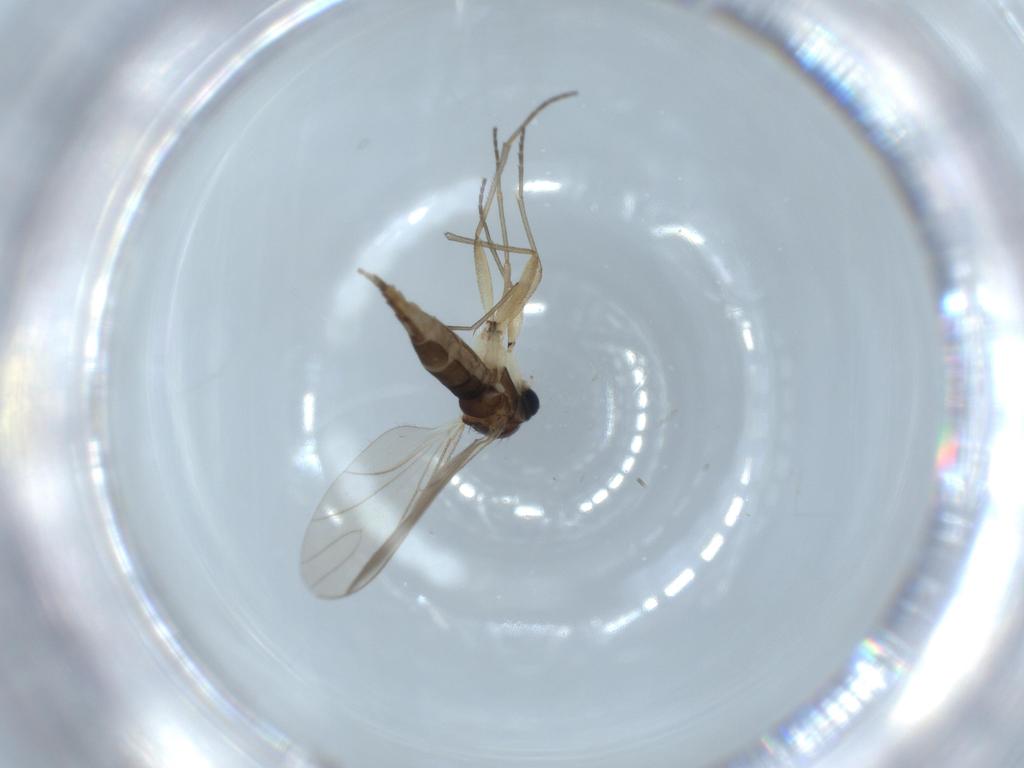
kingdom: Animalia
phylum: Arthropoda
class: Insecta
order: Diptera
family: Sciaridae
